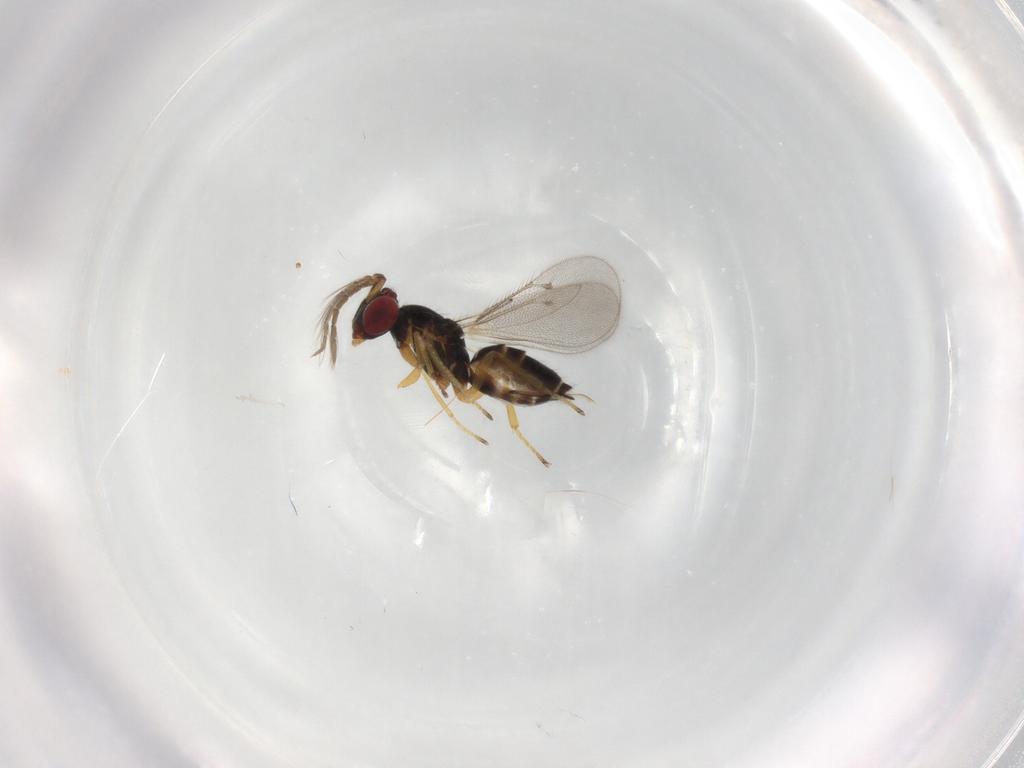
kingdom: Animalia
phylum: Arthropoda
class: Insecta
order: Hymenoptera
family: Eulophidae
